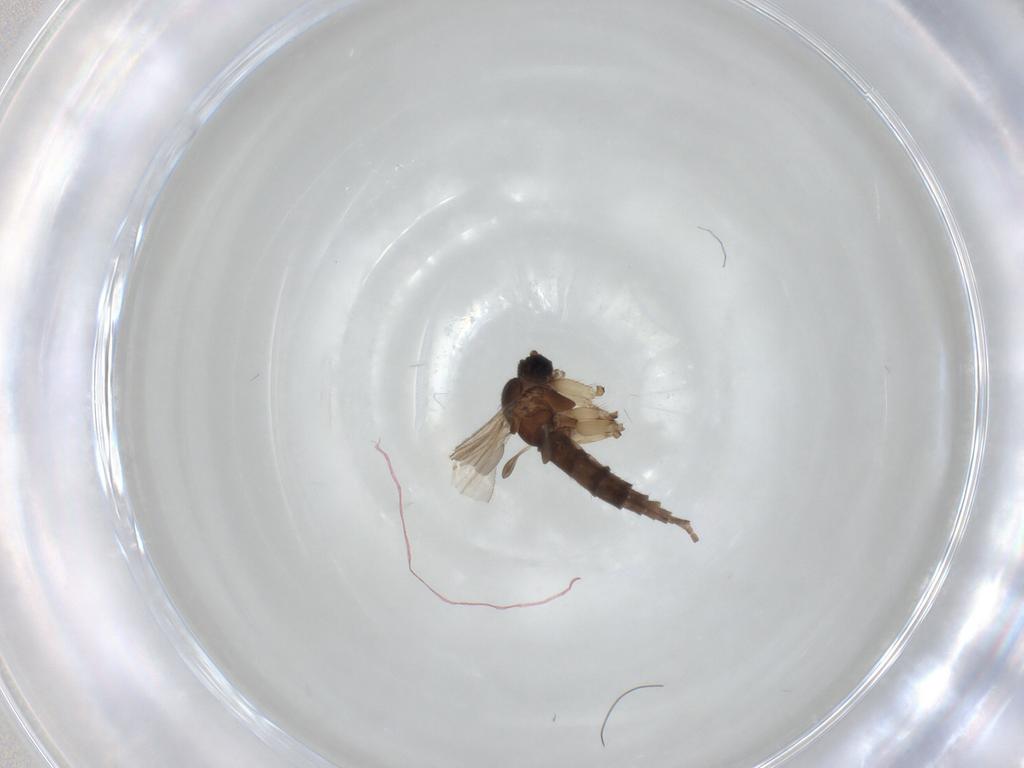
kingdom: Animalia
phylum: Arthropoda
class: Insecta
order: Diptera
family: Sciaridae
